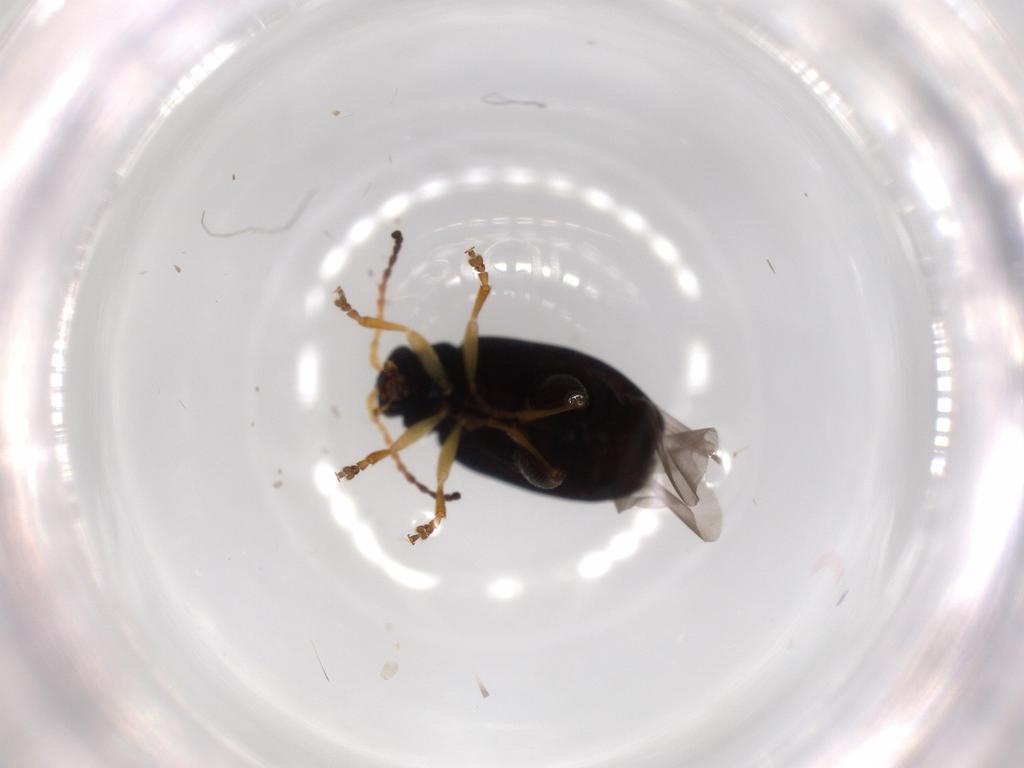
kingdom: Animalia
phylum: Arthropoda
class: Insecta
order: Coleoptera
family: Chrysomelidae
